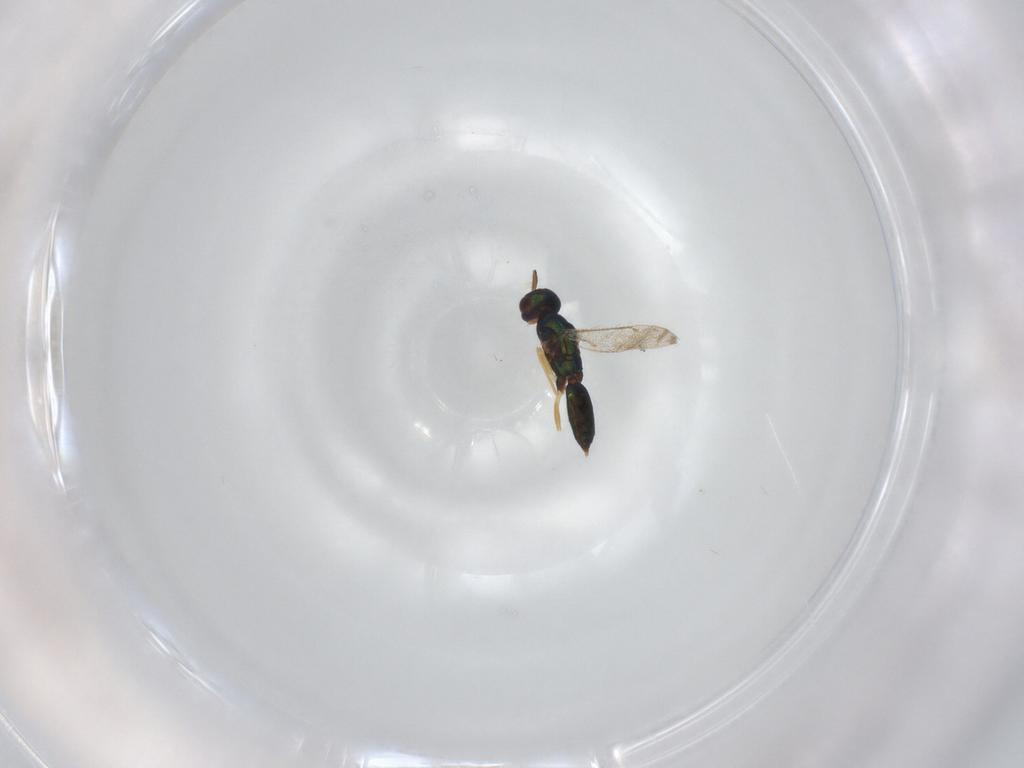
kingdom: Animalia
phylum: Arthropoda
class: Insecta
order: Hymenoptera
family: Eulophidae
